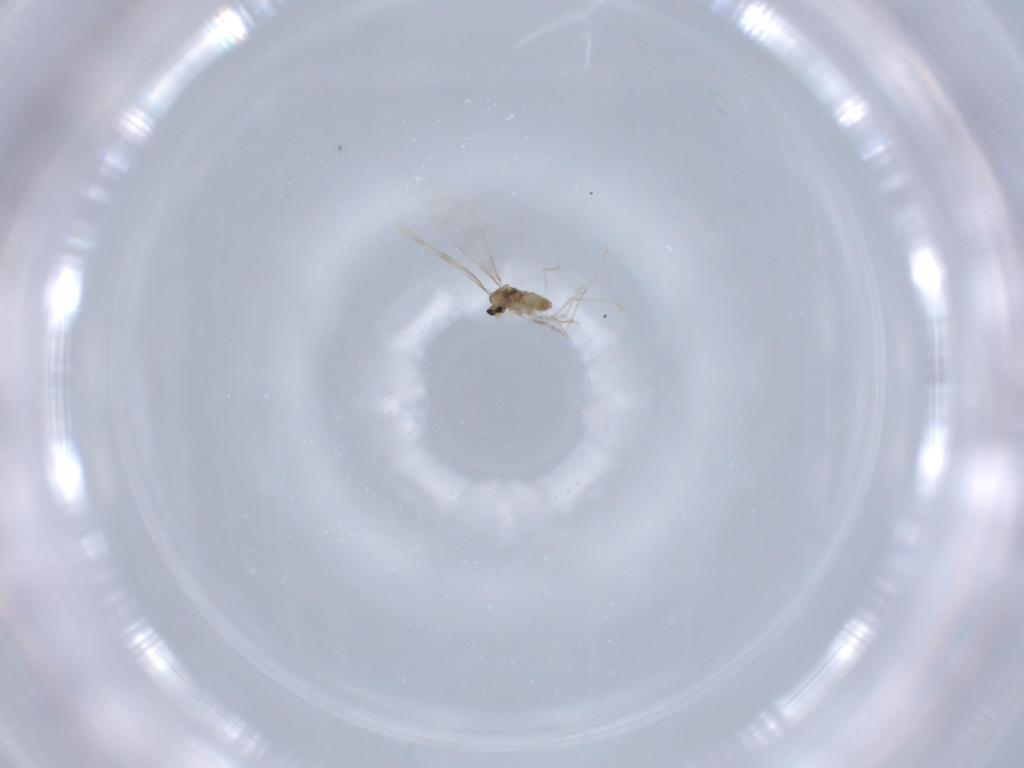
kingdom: Animalia
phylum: Arthropoda
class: Insecta
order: Diptera
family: Cecidomyiidae
